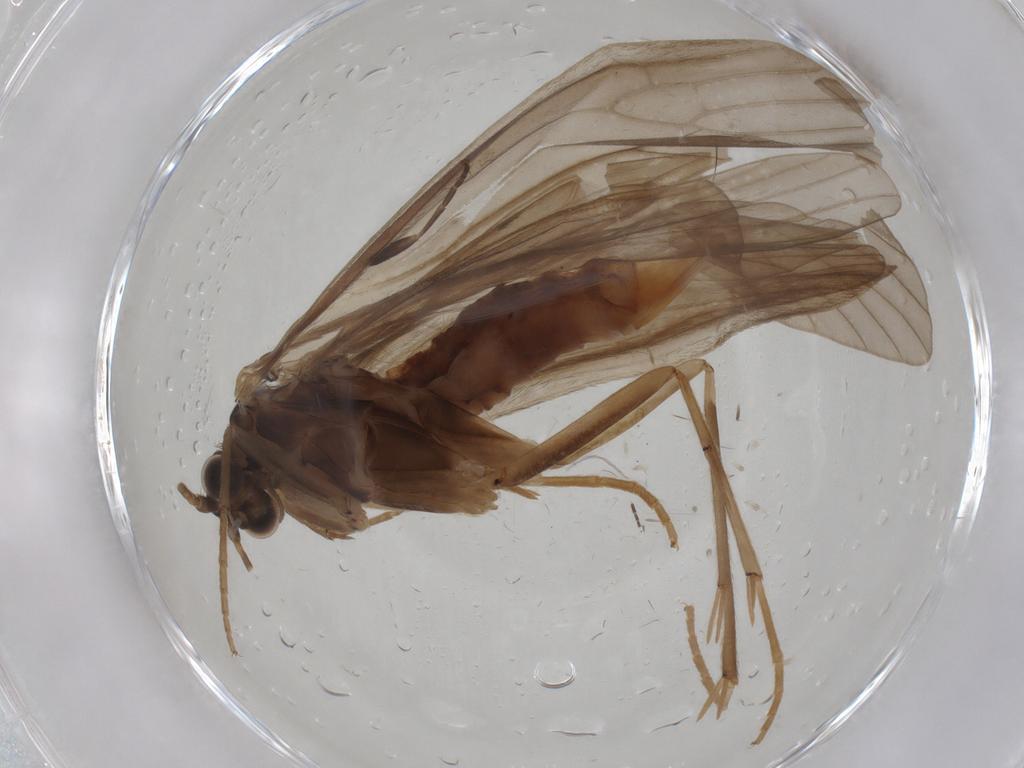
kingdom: Animalia
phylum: Arthropoda
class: Insecta
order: Trichoptera
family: Psychomyiidae
